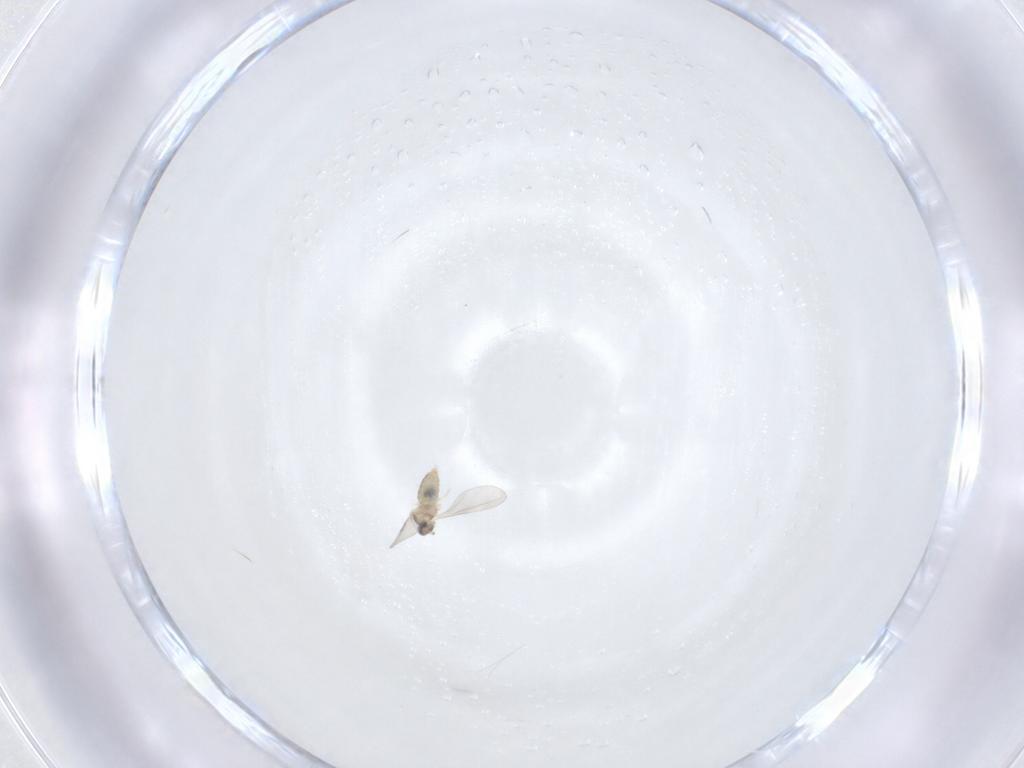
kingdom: Animalia
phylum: Arthropoda
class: Insecta
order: Diptera
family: Cecidomyiidae
